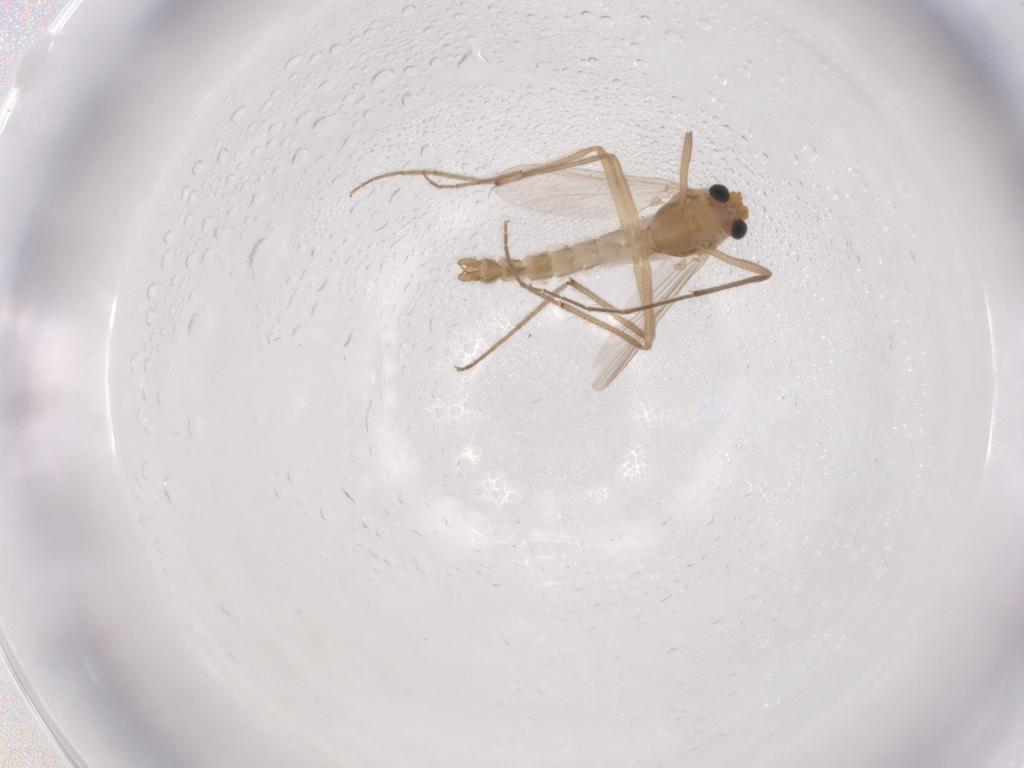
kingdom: Animalia
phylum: Arthropoda
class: Insecta
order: Diptera
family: Chironomidae
